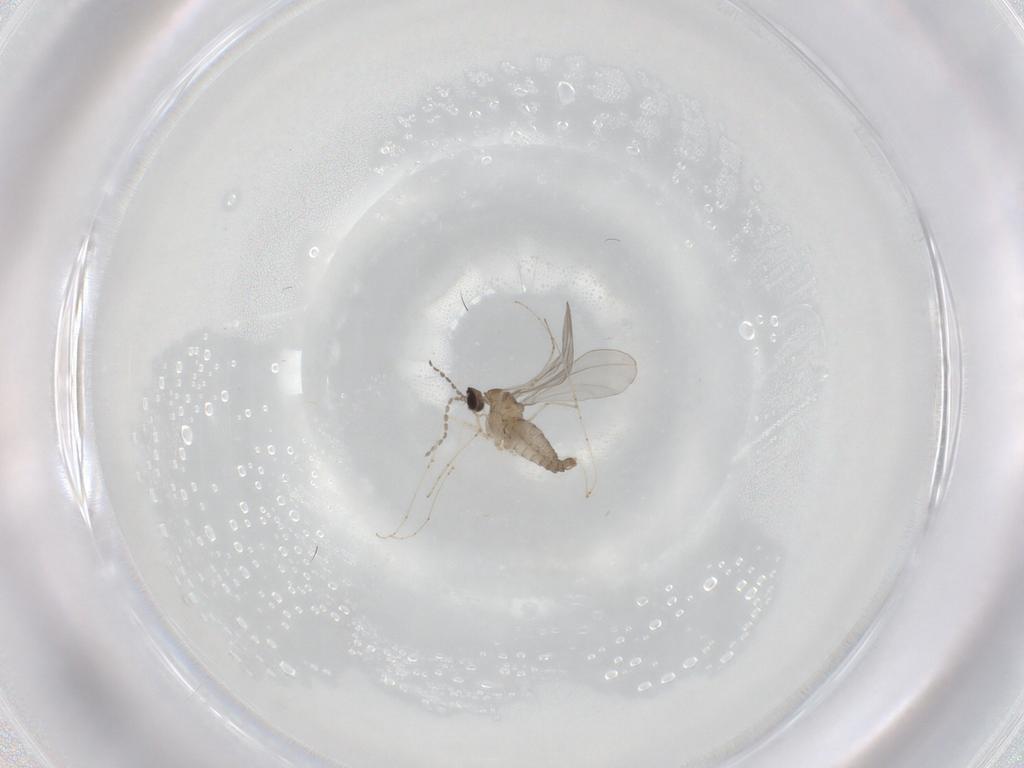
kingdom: Animalia
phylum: Arthropoda
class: Insecta
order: Diptera
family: Cecidomyiidae
